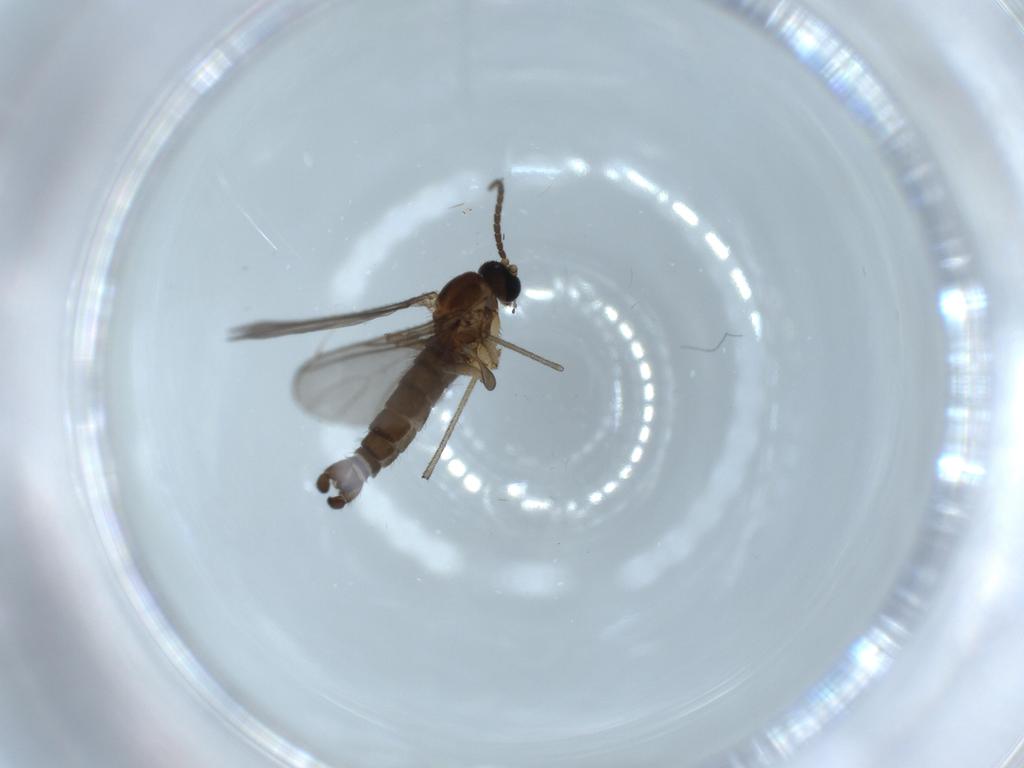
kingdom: Animalia
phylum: Arthropoda
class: Insecta
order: Diptera
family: Sciaridae
